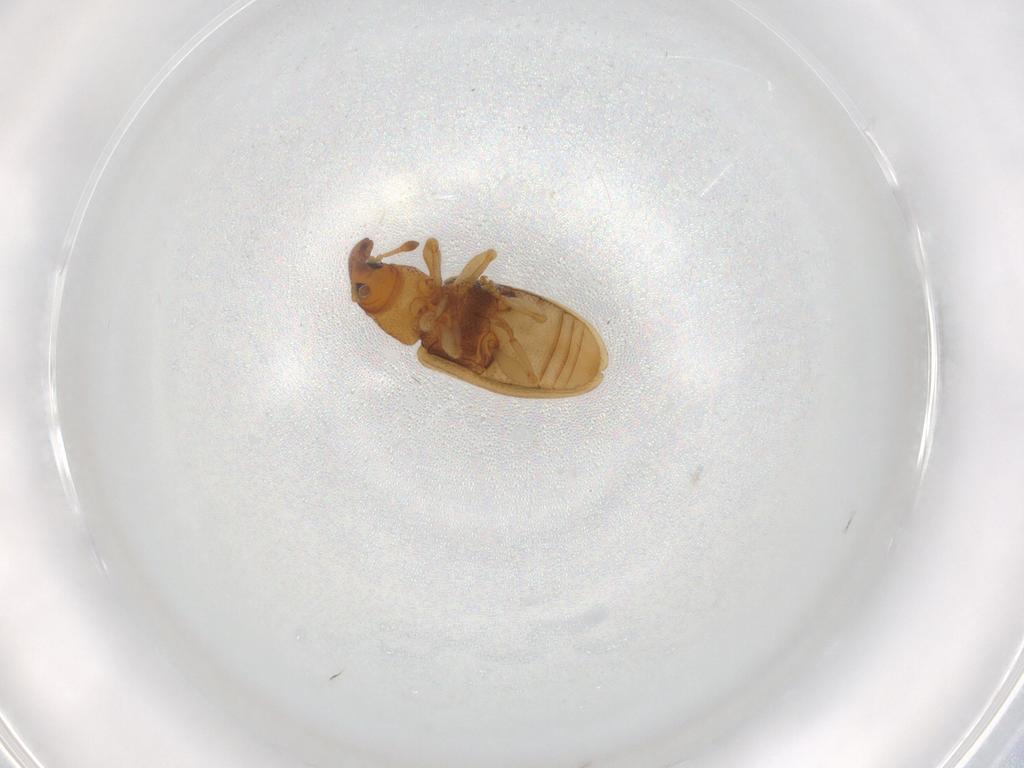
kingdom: Animalia
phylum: Arthropoda
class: Insecta
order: Coleoptera
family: Curculionidae
